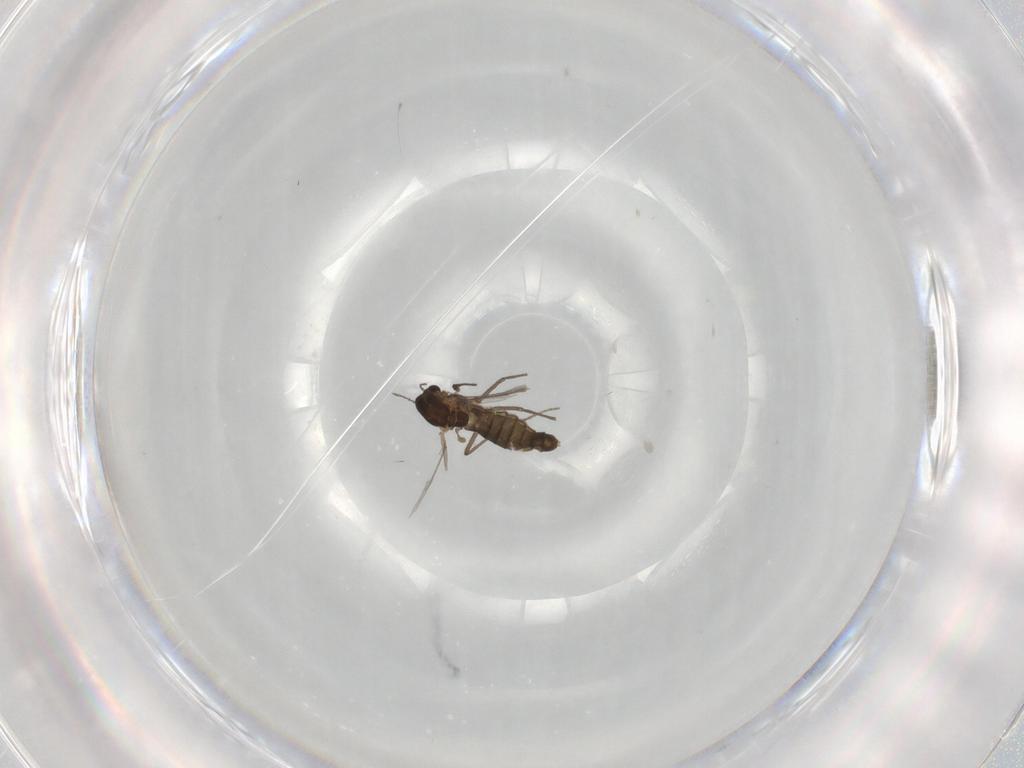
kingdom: Animalia
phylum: Arthropoda
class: Insecta
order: Diptera
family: Chironomidae
